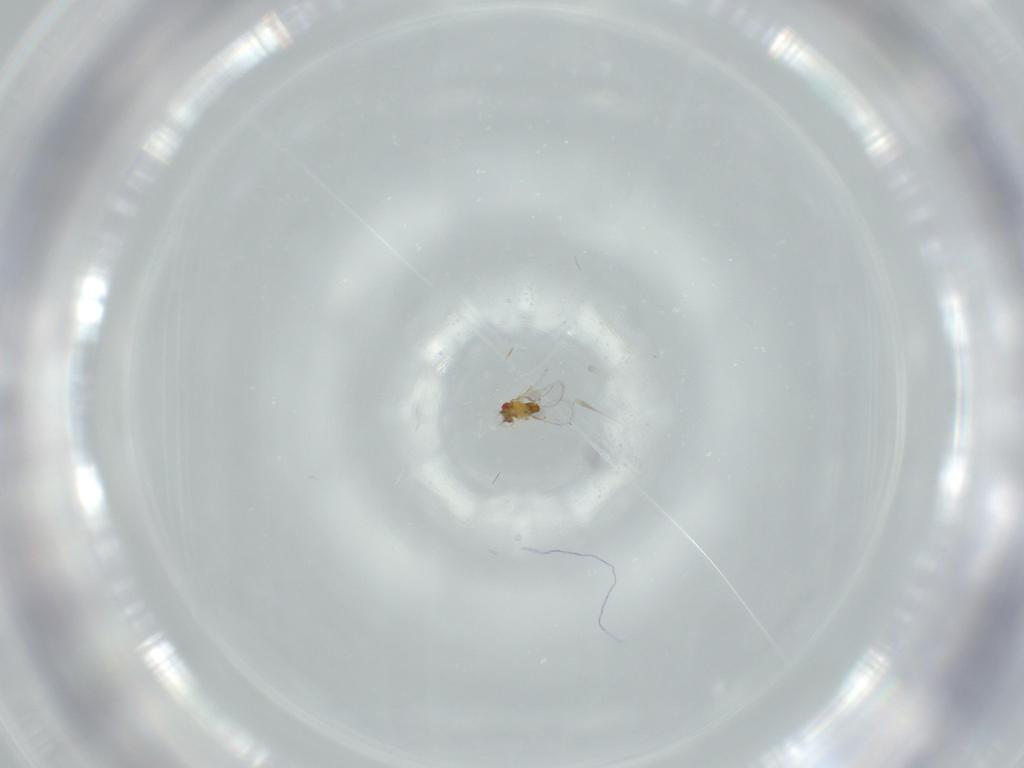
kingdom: Animalia
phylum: Arthropoda
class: Insecta
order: Hymenoptera
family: Trichogrammatidae
